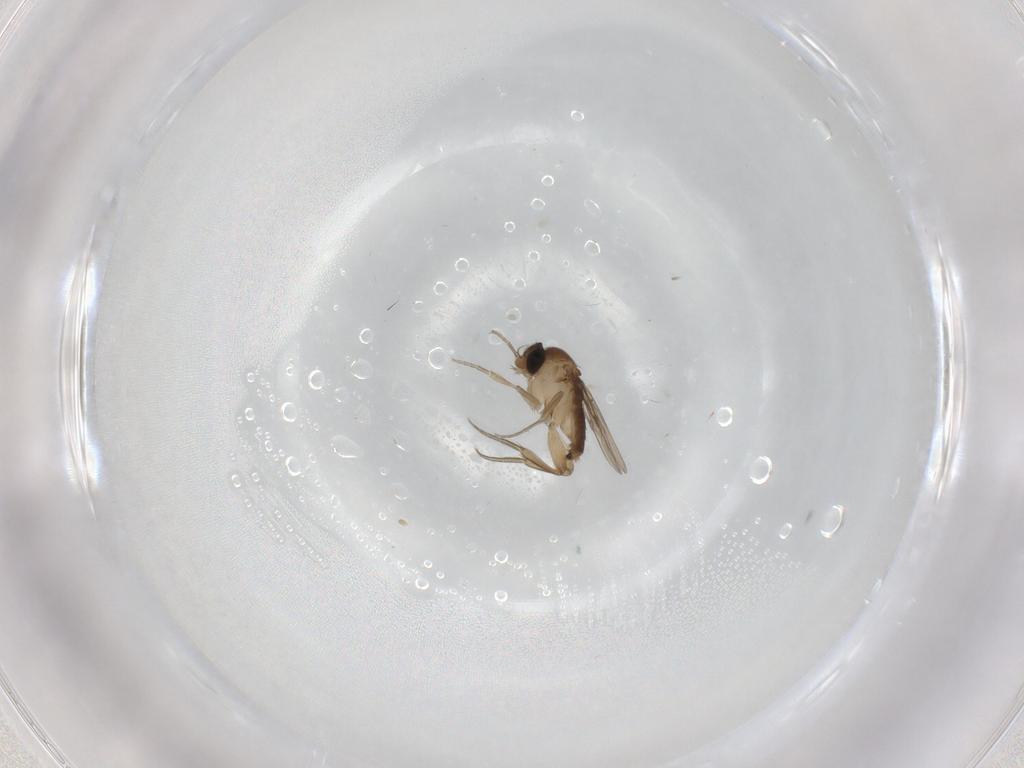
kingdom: Animalia
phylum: Arthropoda
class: Insecta
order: Diptera
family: Phoridae
